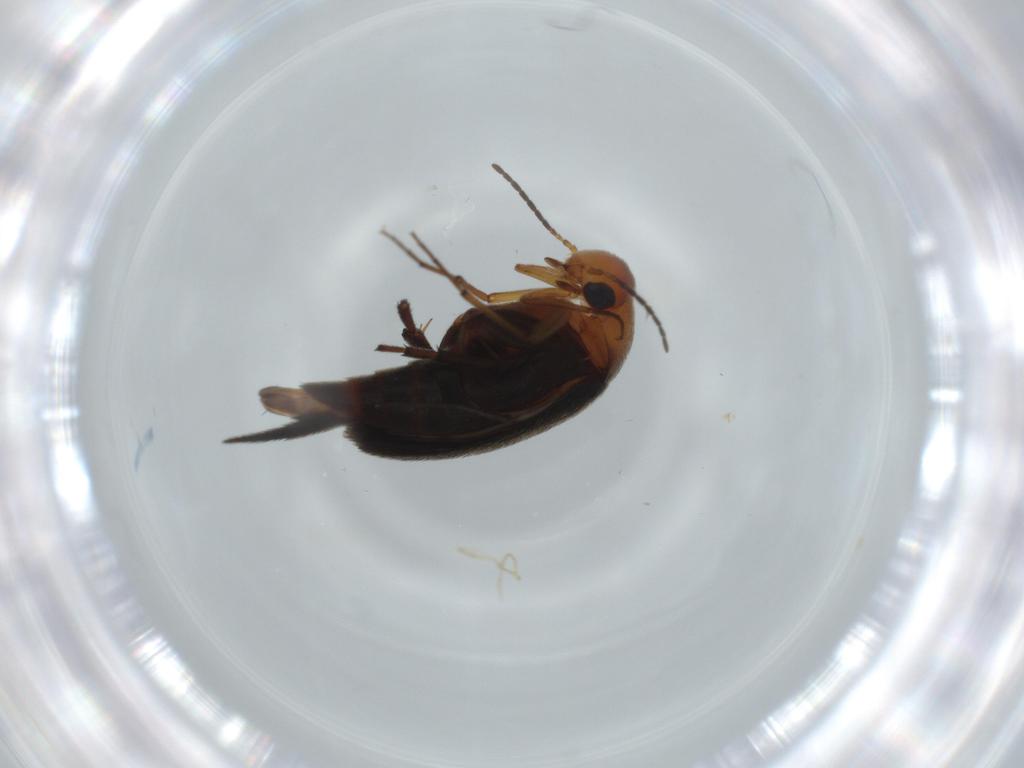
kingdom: Animalia
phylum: Arthropoda
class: Insecta
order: Coleoptera
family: Mordellidae
